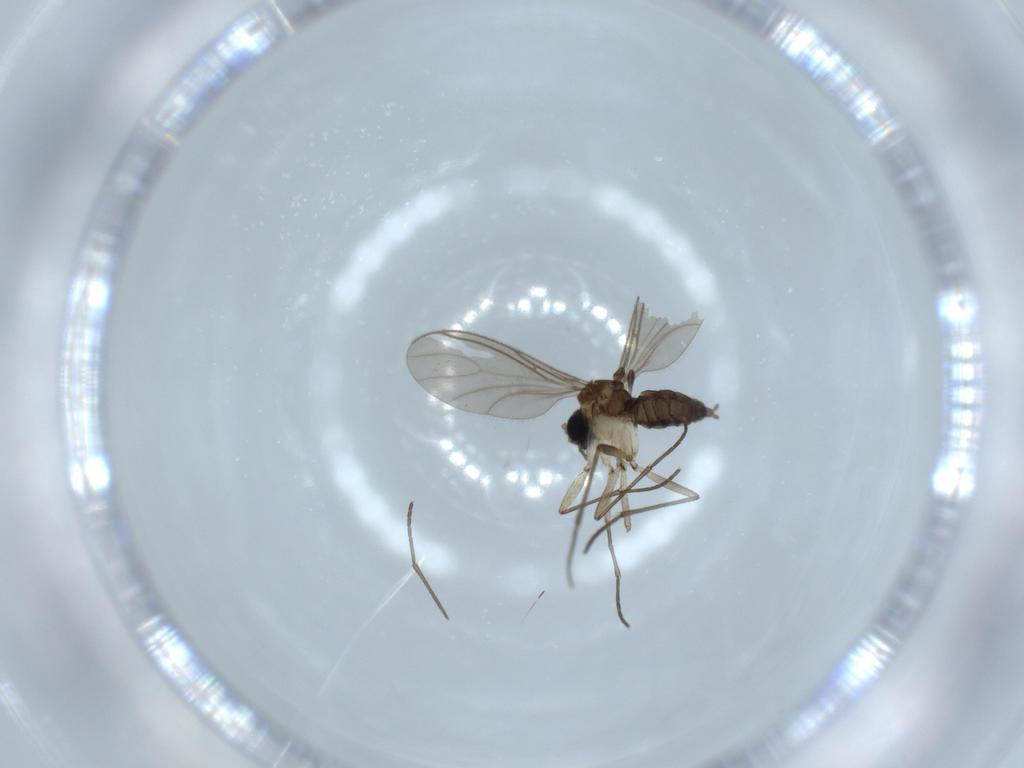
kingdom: Animalia
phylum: Arthropoda
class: Insecta
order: Diptera
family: Sciaridae
